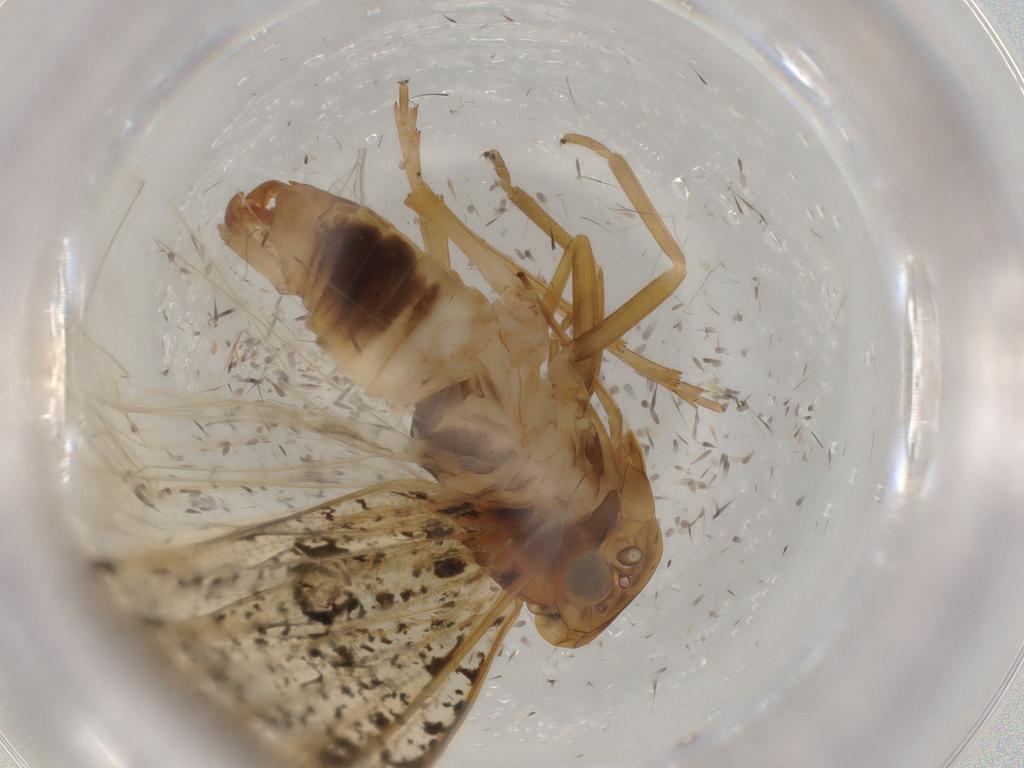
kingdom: Animalia
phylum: Arthropoda
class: Insecta
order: Hemiptera
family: Cixiidae
